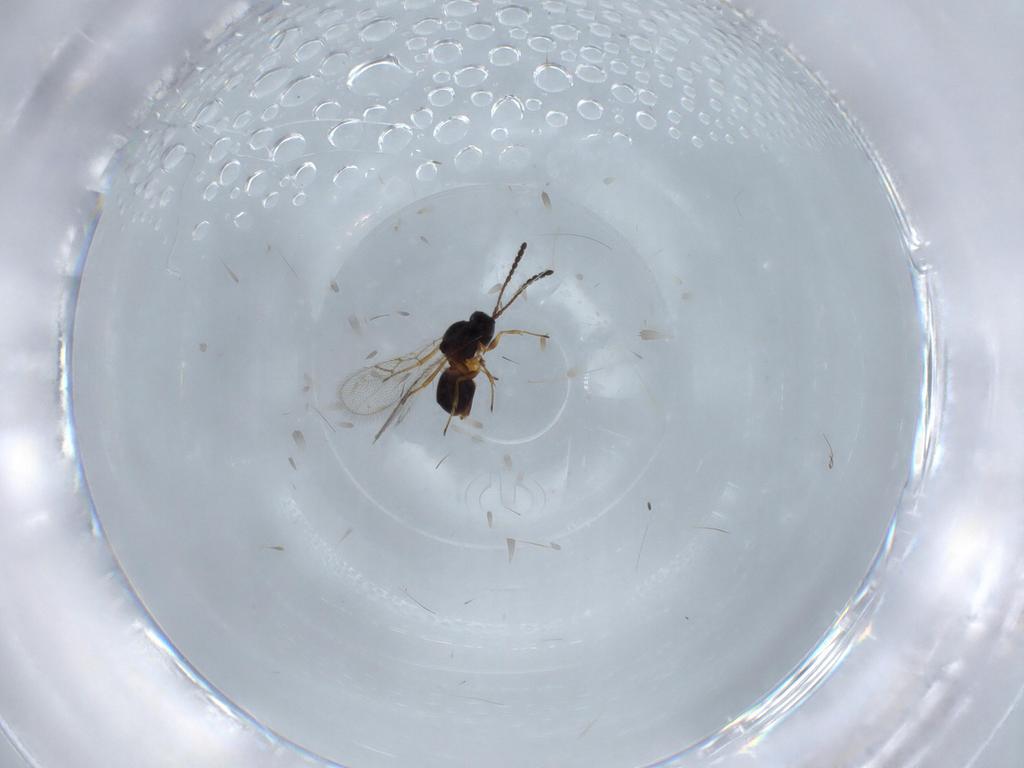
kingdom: Animalia
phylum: Arthropoda
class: Insecta
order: Hymenoptera
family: Figitidae
